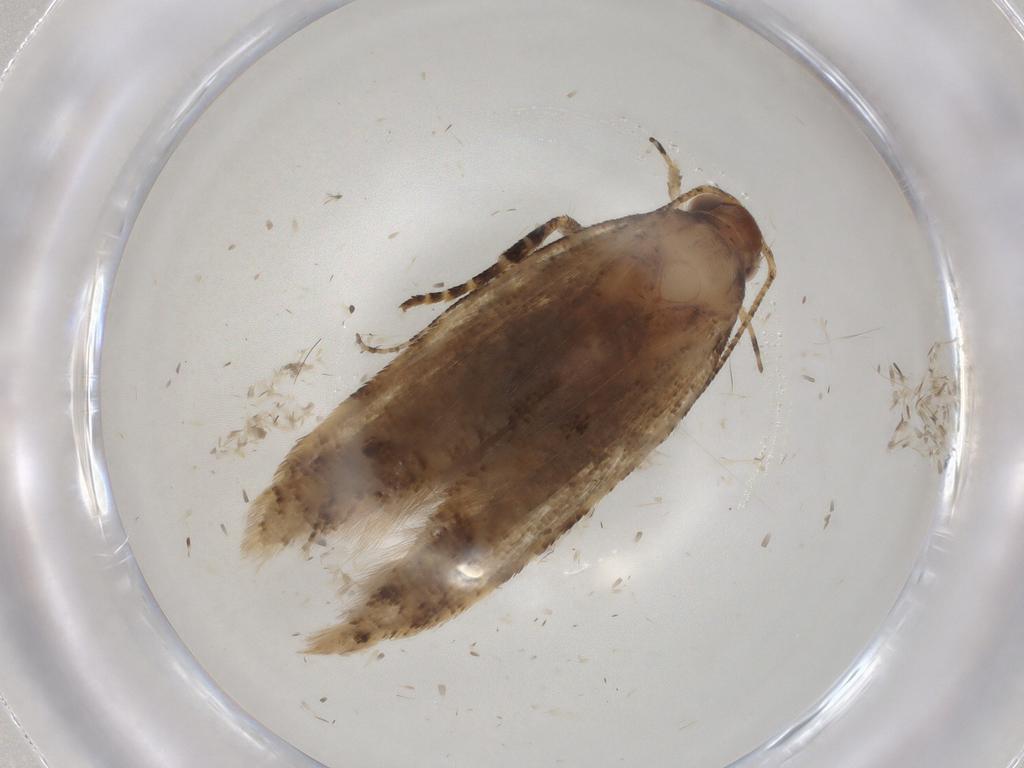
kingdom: Animalia
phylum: Arthropoda
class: Insecta
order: Lepidoptera
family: Gelechiidae
